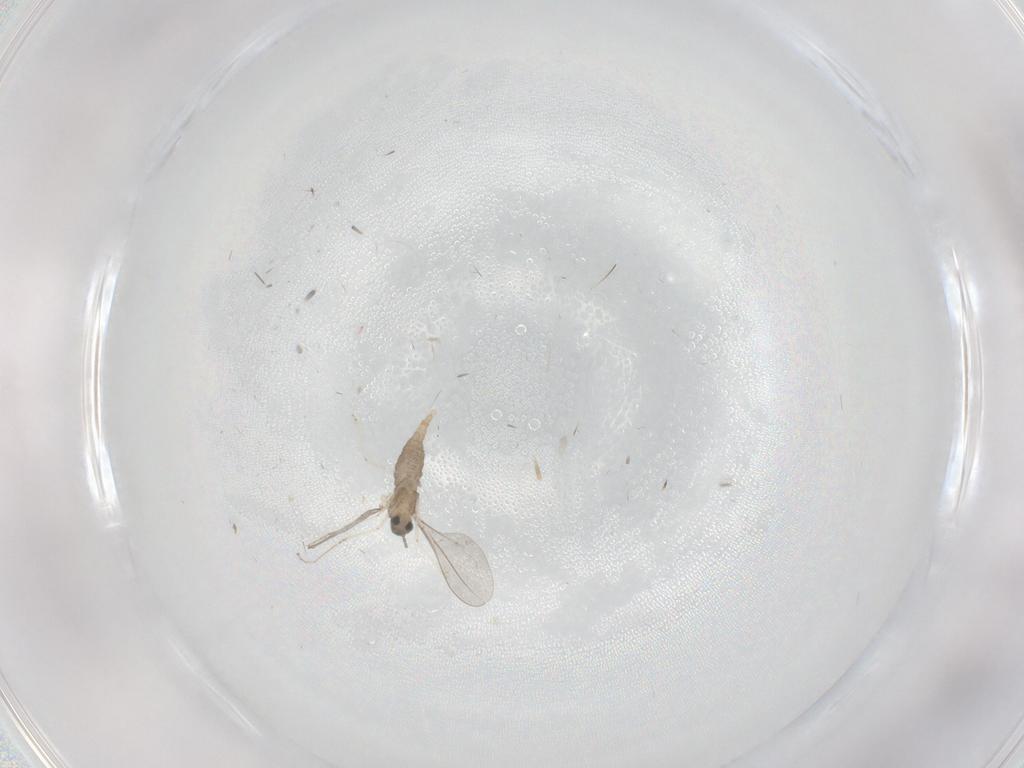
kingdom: Animalia
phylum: Arthropoda
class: Insecta
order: Diptera
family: Cecidomyiidae
